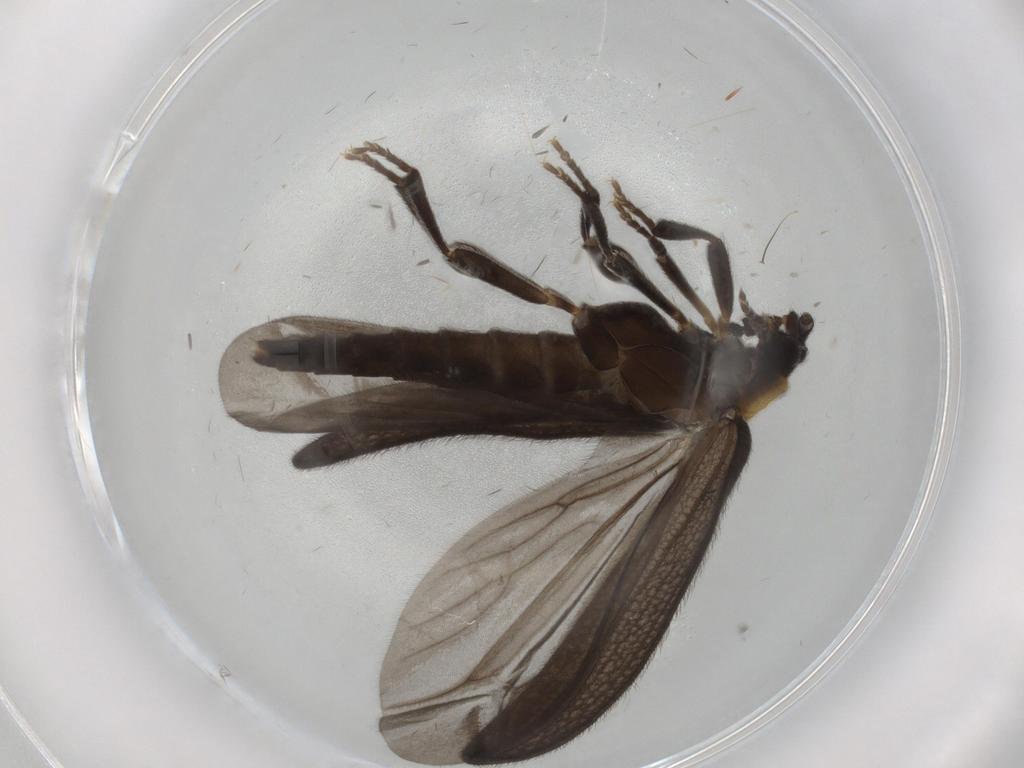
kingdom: Animalia
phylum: Arthropoda
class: Insecta
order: Coleoptera
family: Lycidae
